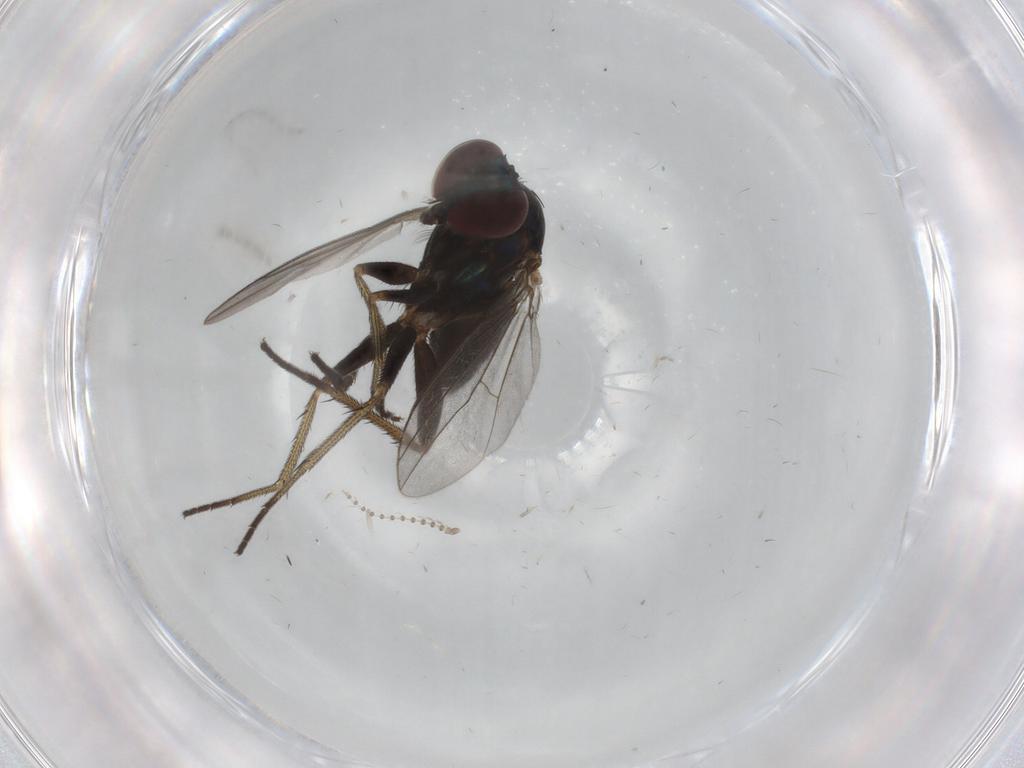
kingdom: Animalia
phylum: Arthropoda
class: Insecta
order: Diptera
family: Dolichopodidae
